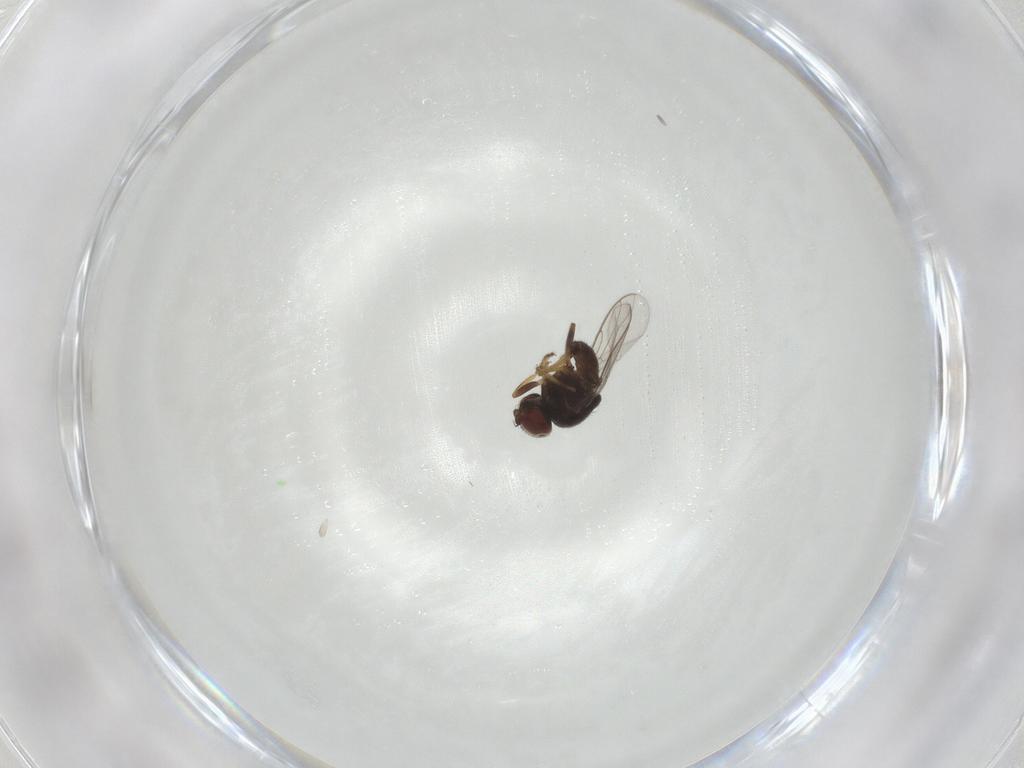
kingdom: Animalia
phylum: Arthropoda
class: Insecta
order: Diptera
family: Chloropidae
